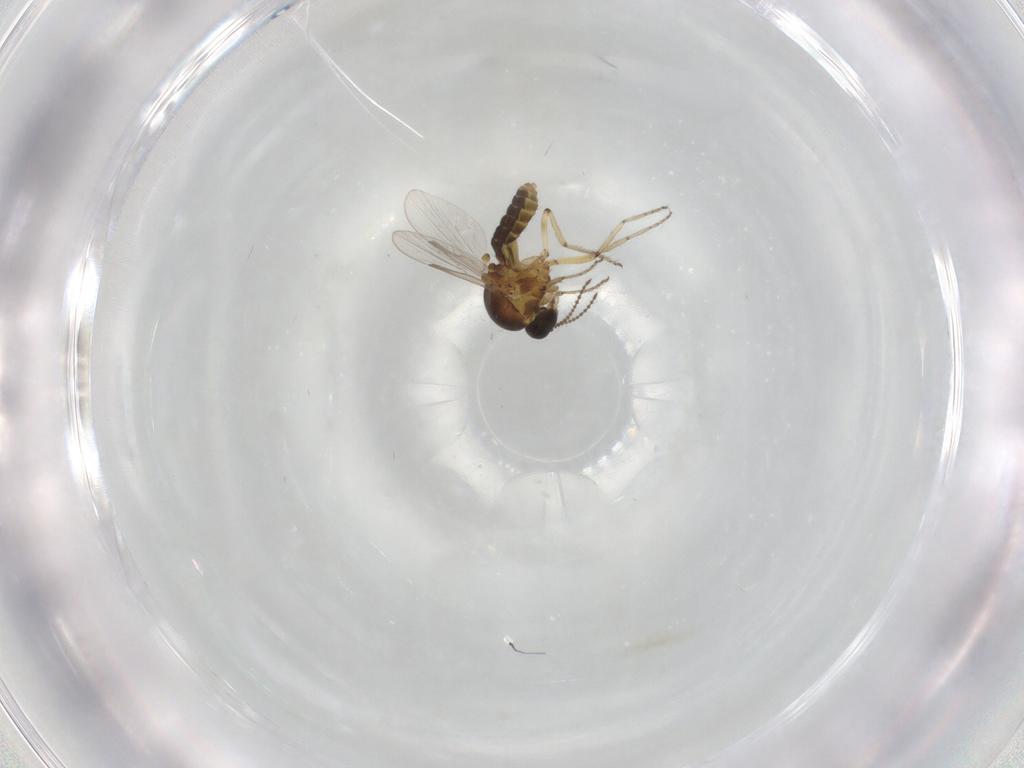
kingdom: Animalia
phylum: Arthropoda
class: Insecta
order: Diptera
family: Ceratopogonidae
